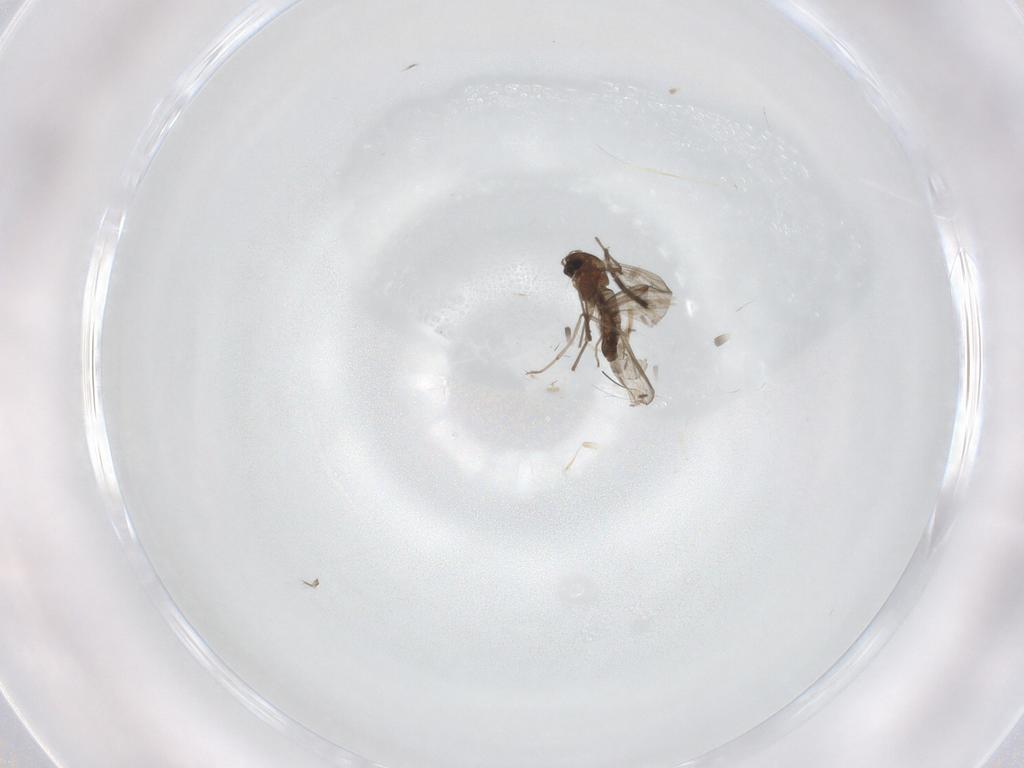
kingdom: Animalia
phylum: Arthropoda
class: Insecta
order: Diptera
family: Chironomidae
